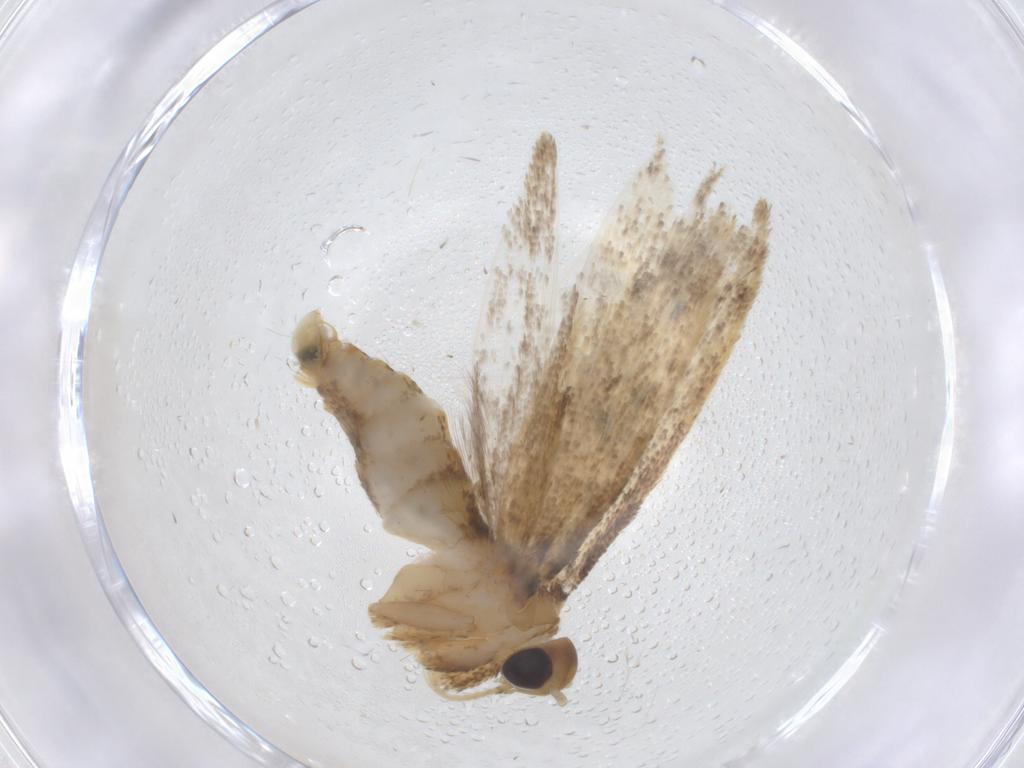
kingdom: Animalia
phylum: Arthropoda
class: Insecta
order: Lepidoptera
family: Oecophoridae
